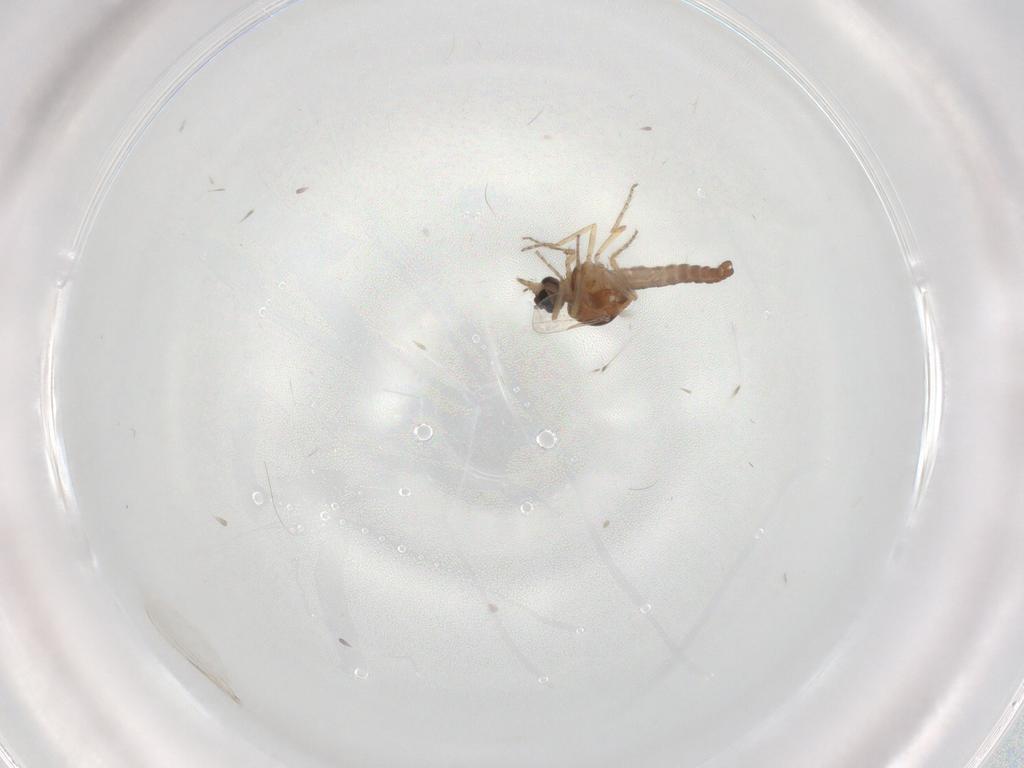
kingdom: Animalia
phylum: Arthropoda
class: Insecta
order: Diptera
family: Ceratopogonidae
